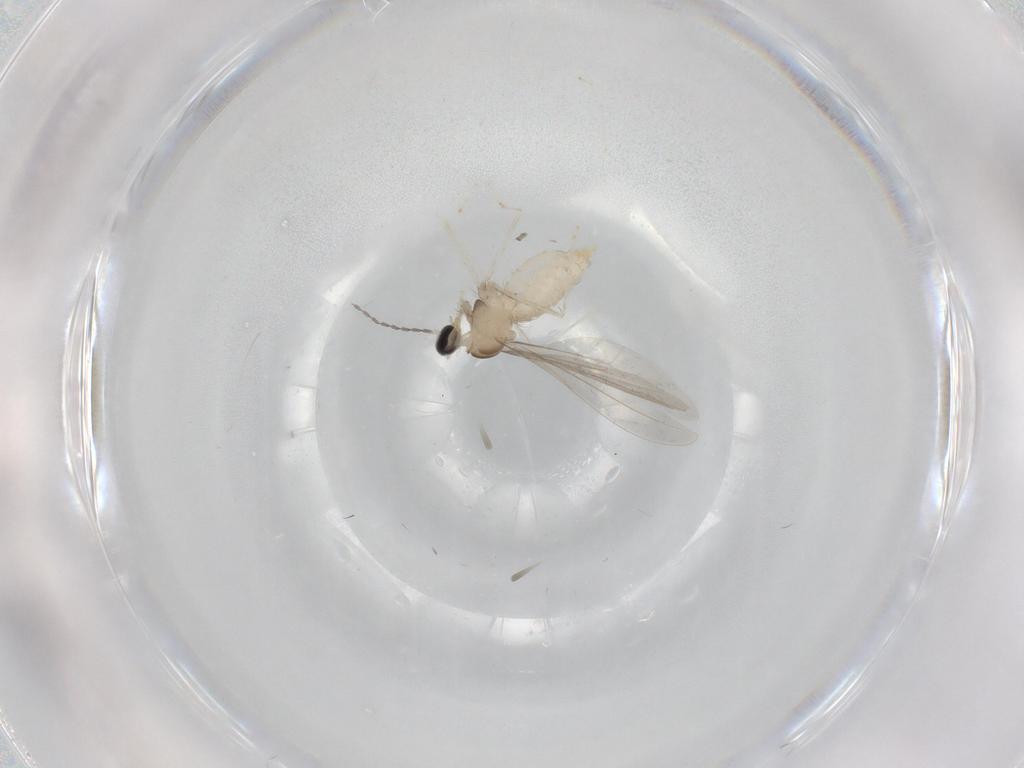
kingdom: Animalia
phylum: Arthropoda
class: Insecta
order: Diptera
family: Cecidomyiidae
